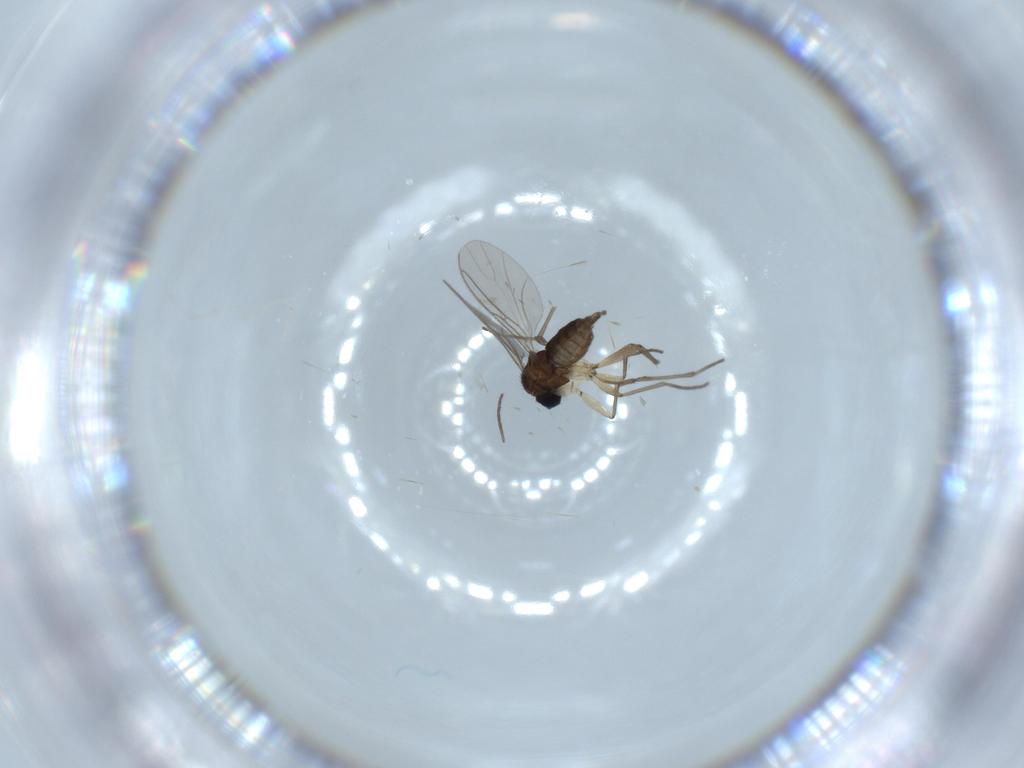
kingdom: Animalia
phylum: Arthropoda
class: Insecta
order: Diptera
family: Sciaridae
